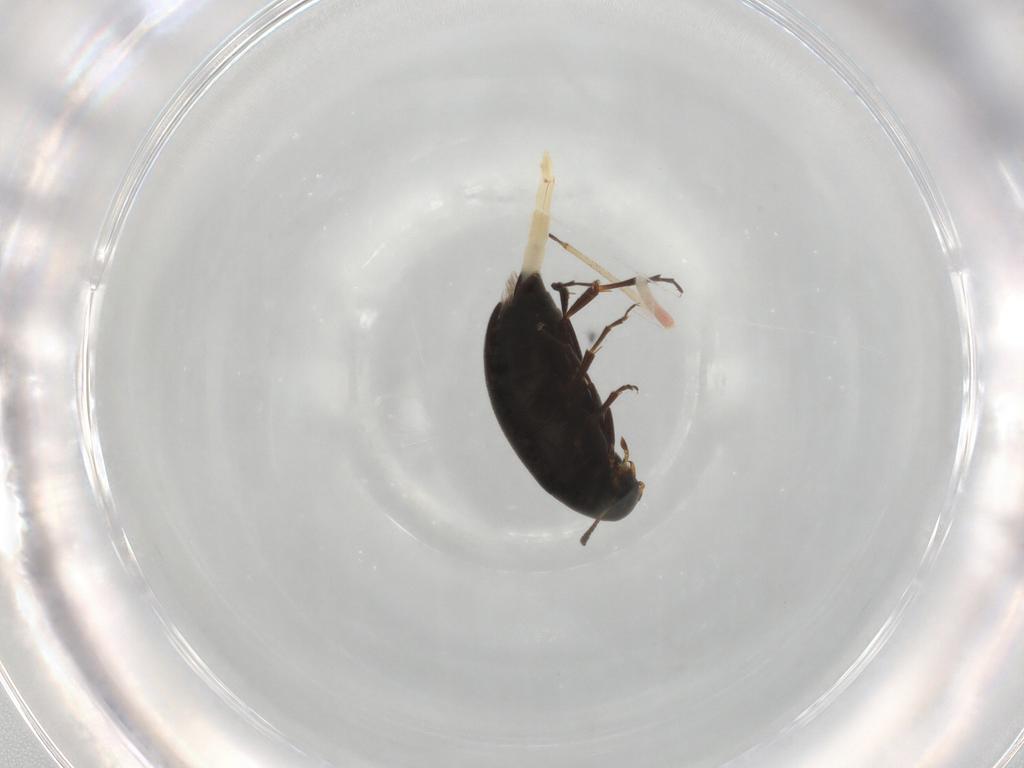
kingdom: Animalia
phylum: Arthropoda
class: Insecta
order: Coleoptera
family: Scraptiidae
